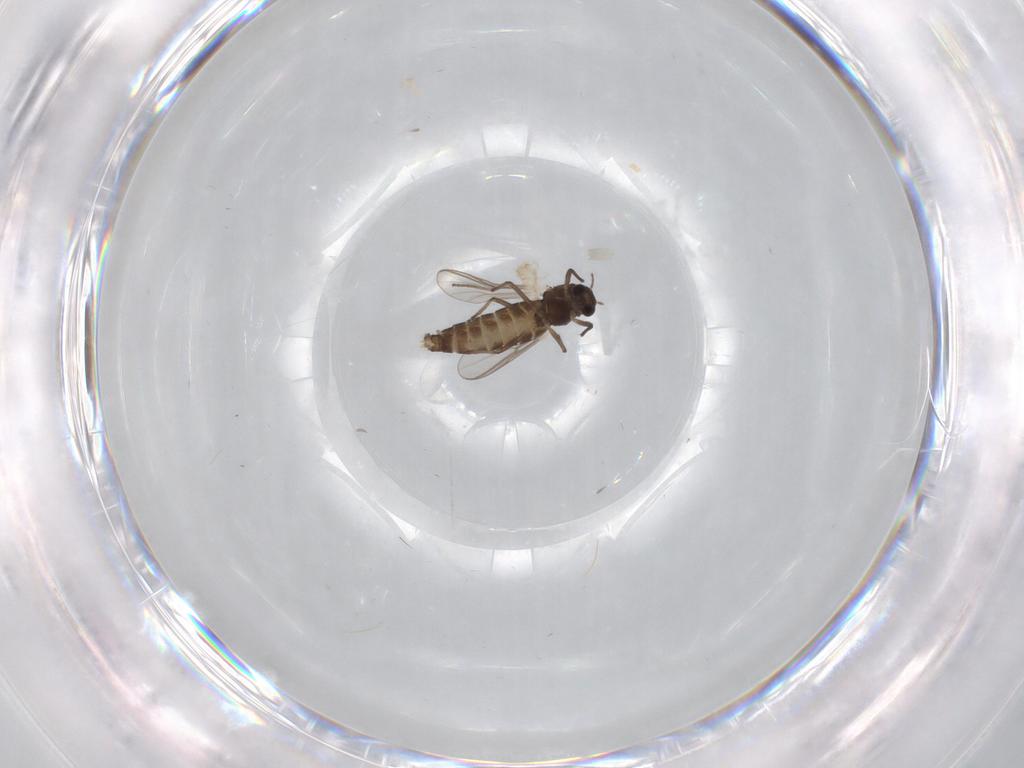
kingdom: Animalia
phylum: Arthropoda
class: Insecta
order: Diptera
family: Chironomidae
